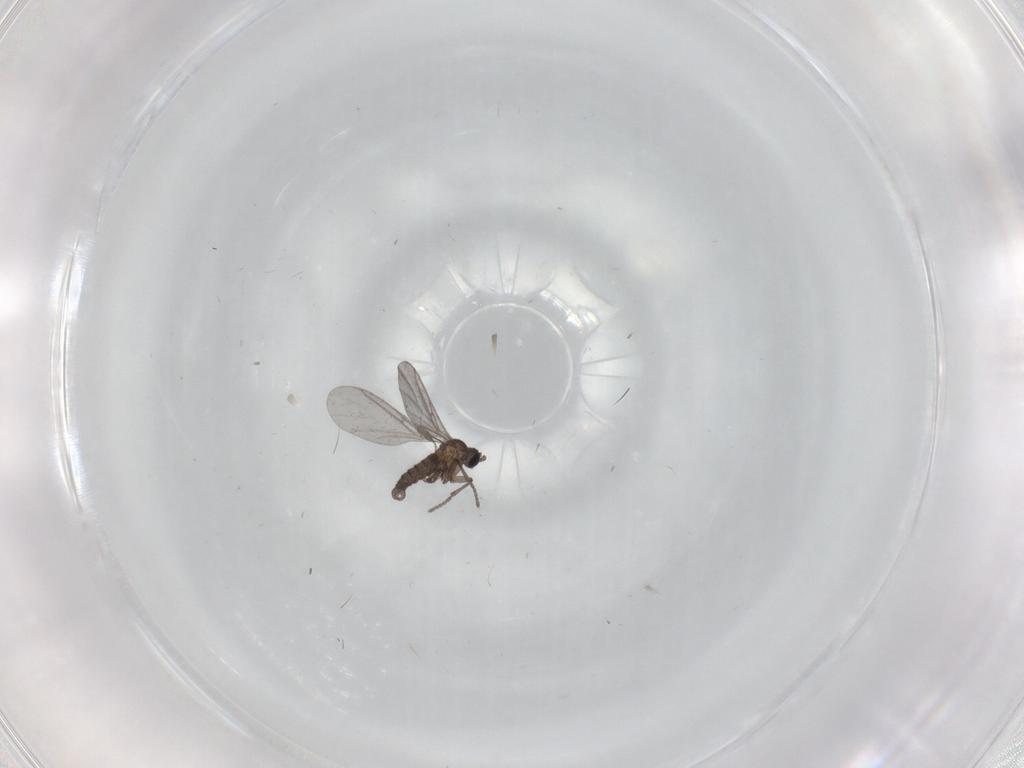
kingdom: Animalia
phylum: Arthropoda
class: Insecta
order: Diptera
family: Sciaridae
